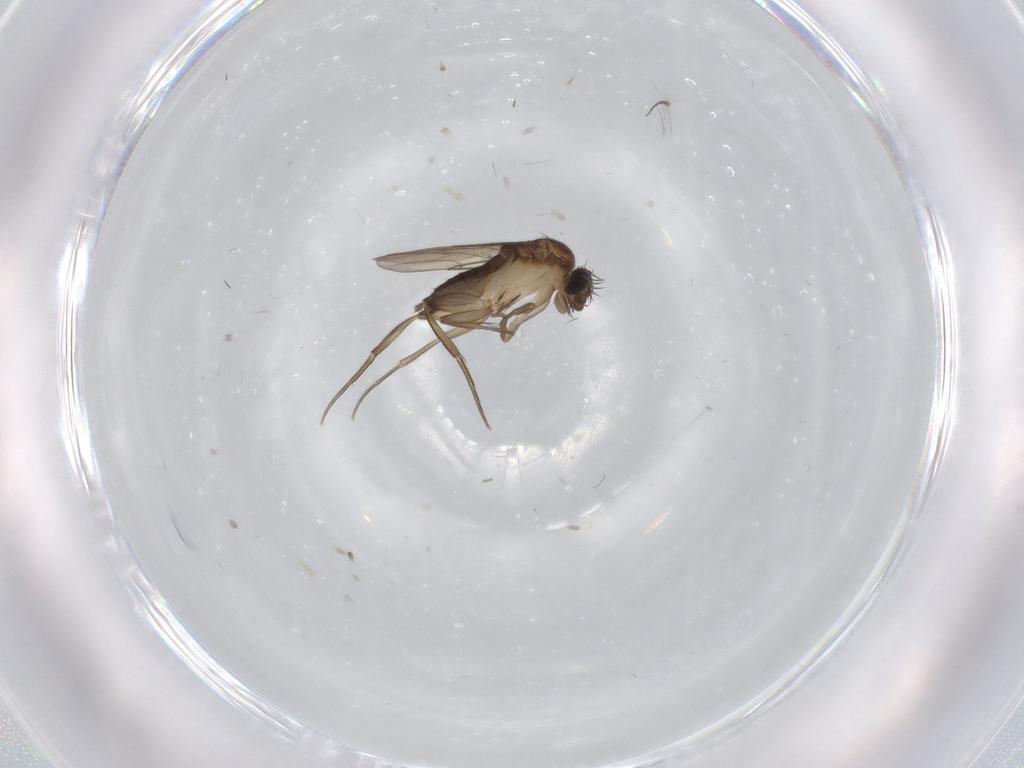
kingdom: Animalia
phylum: Arthropoda
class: Insecta
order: Diptera
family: Phoridae
